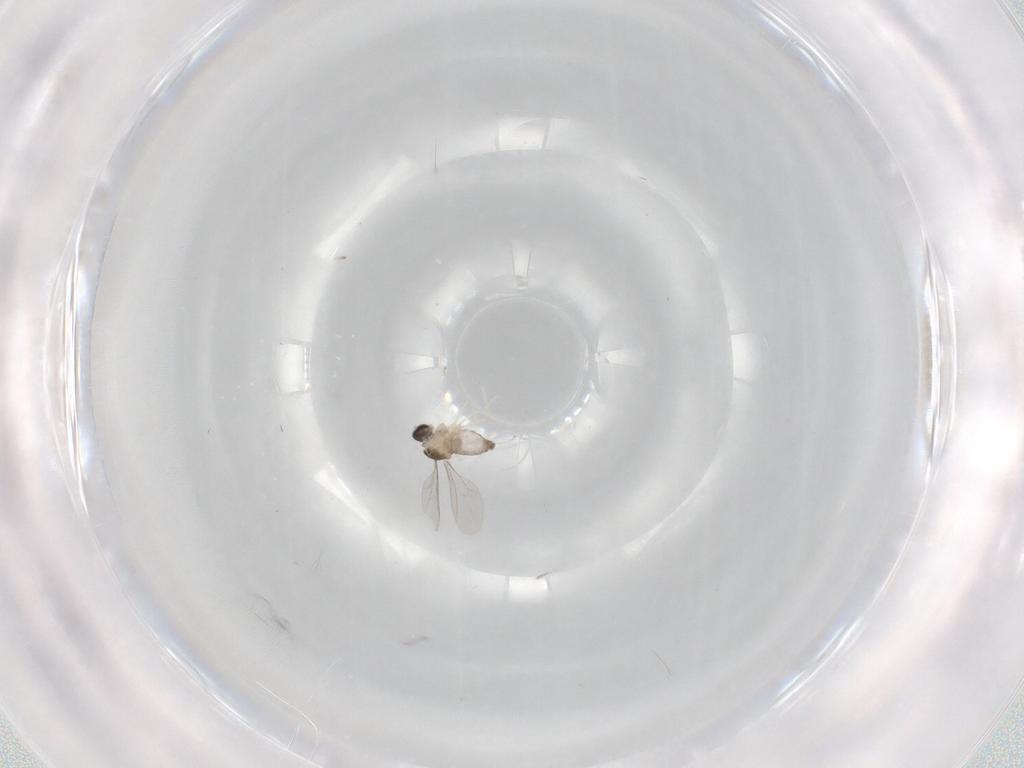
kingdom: Animalia
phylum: Arthropoda
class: Insecta
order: Diptera
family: Cecidomyiidae
